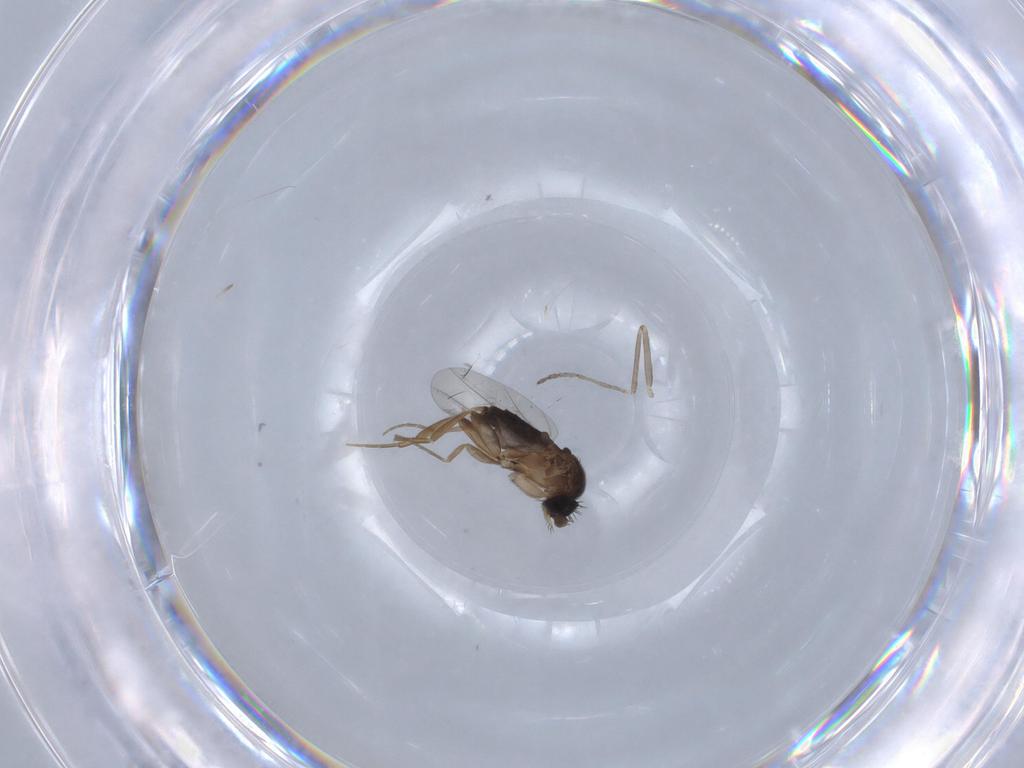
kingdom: Animalia
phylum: Arthropoda
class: Insecta
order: Diptera
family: Phoridae
